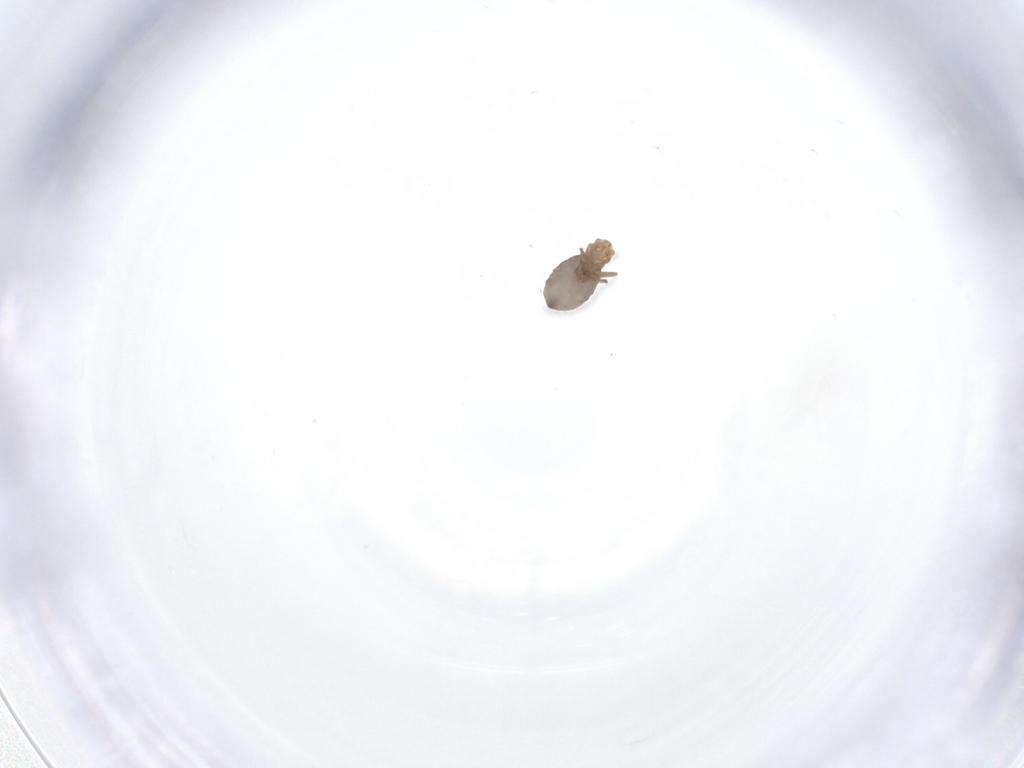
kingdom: Animalia
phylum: Arthropoda
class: Insecta
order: Diptera
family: Phoridae
